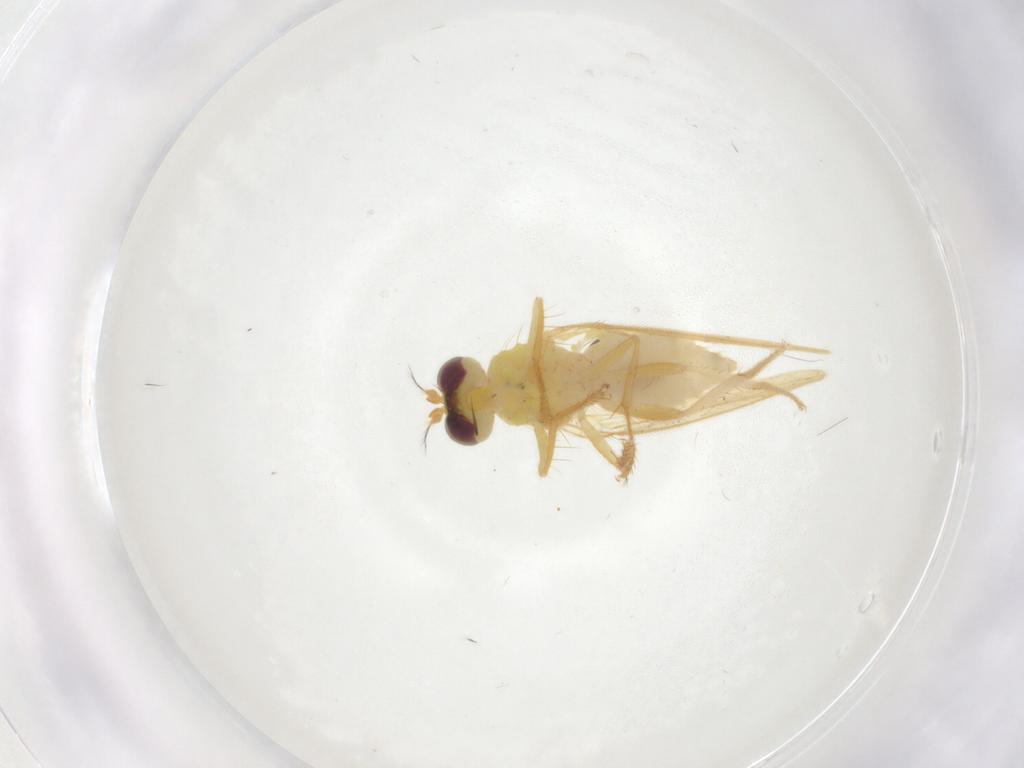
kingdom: Animalia
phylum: Arthropoda
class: Insecta
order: Diptera
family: Periscelididae
